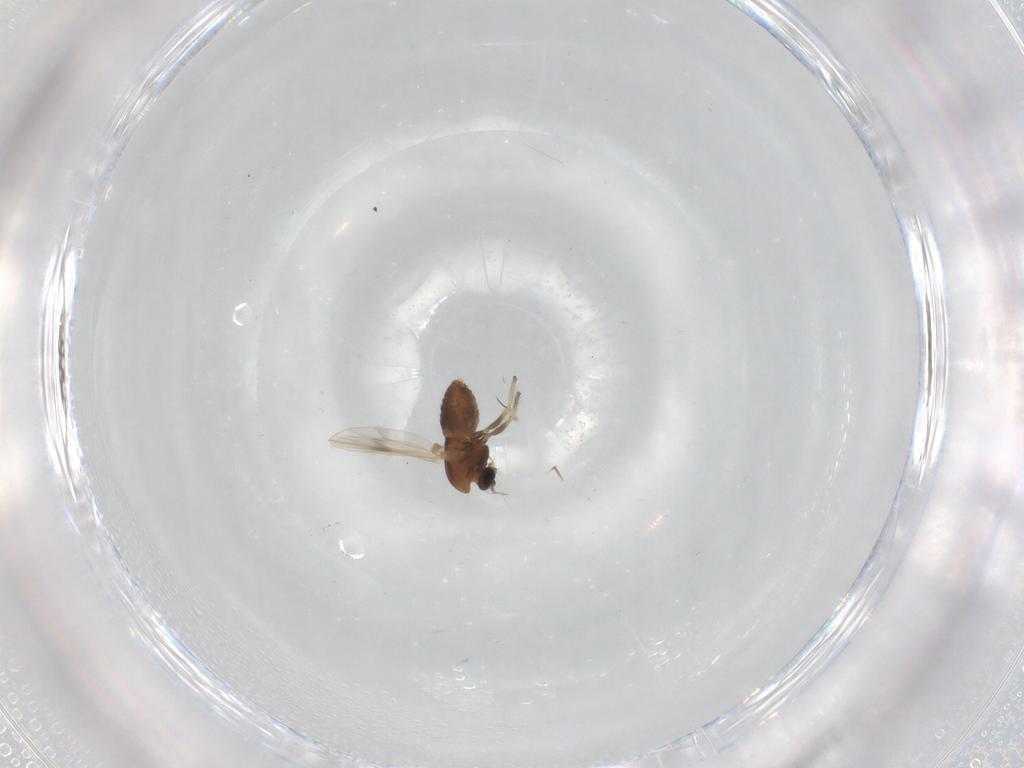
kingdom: Animalia
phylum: Arthropoda
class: Insecta
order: Diptera
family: Chironomidae
